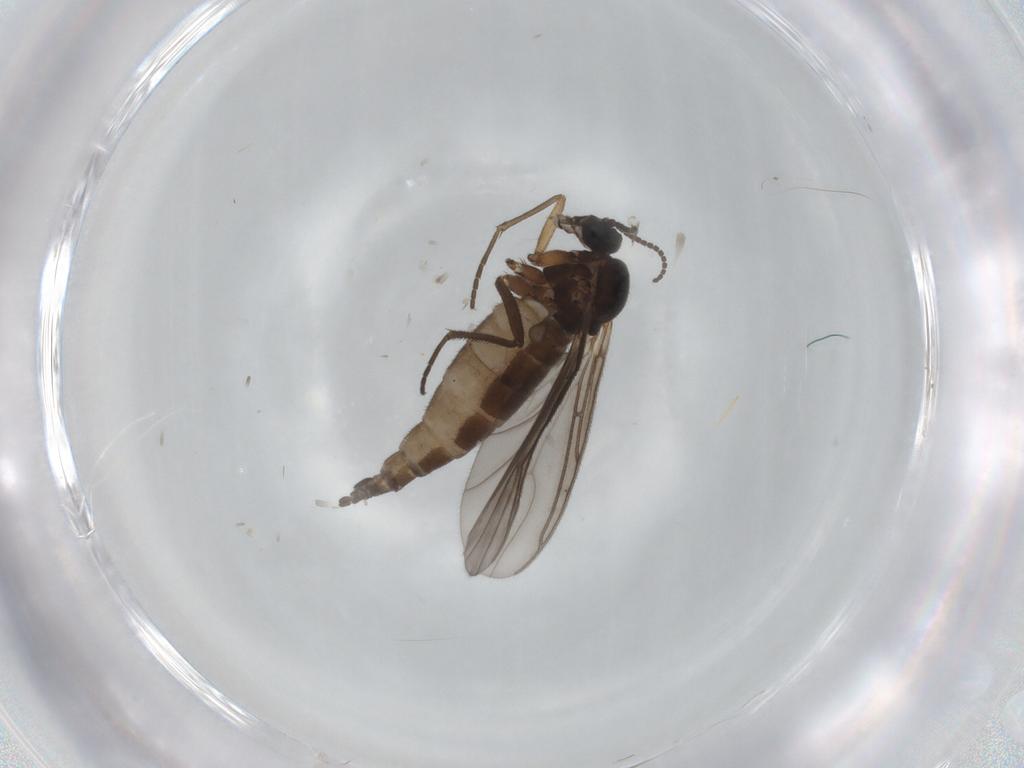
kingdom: Animalia
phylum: Arthropoda
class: Insecta
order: Diptera
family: Sciaridae
